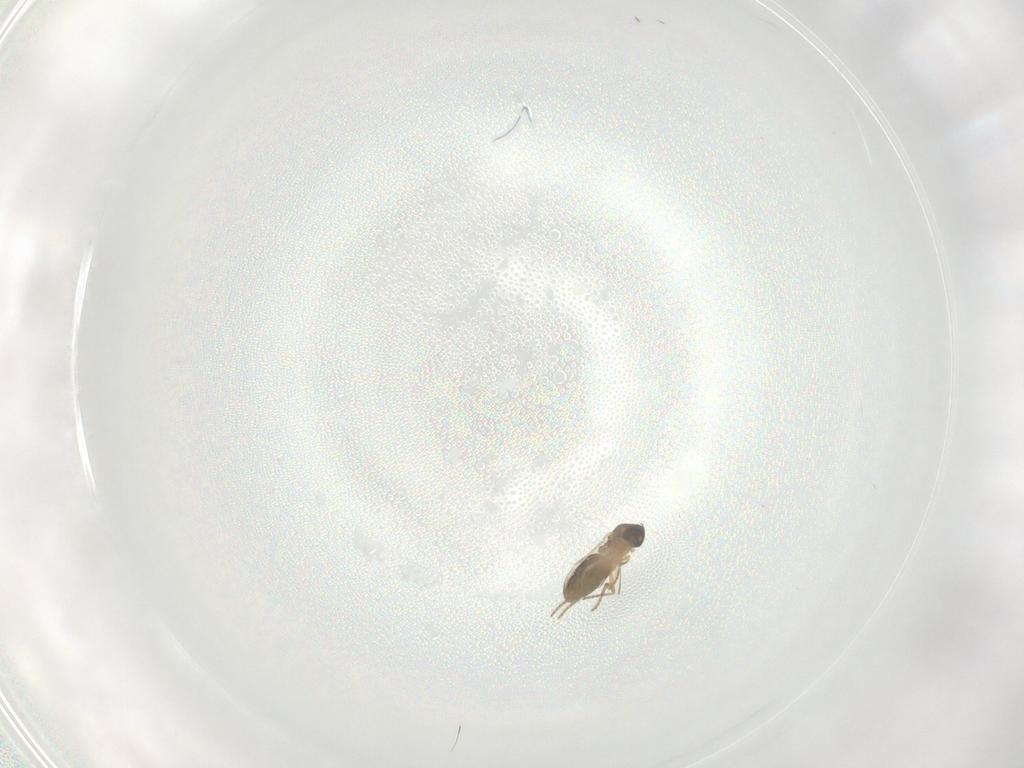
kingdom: Animalia
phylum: Arthropoda
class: Insecta
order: Diptera
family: Ceratopogonidae
